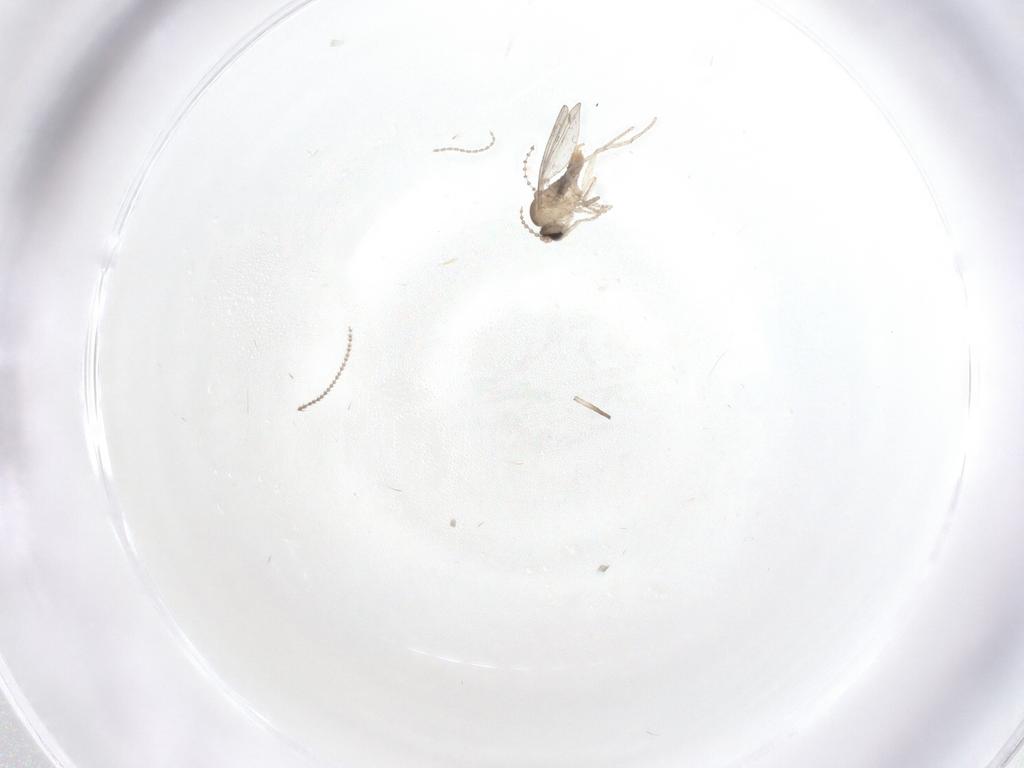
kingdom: Animalia
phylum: Arthropoda
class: Insecta
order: Diptera
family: Cecidomyiidae
